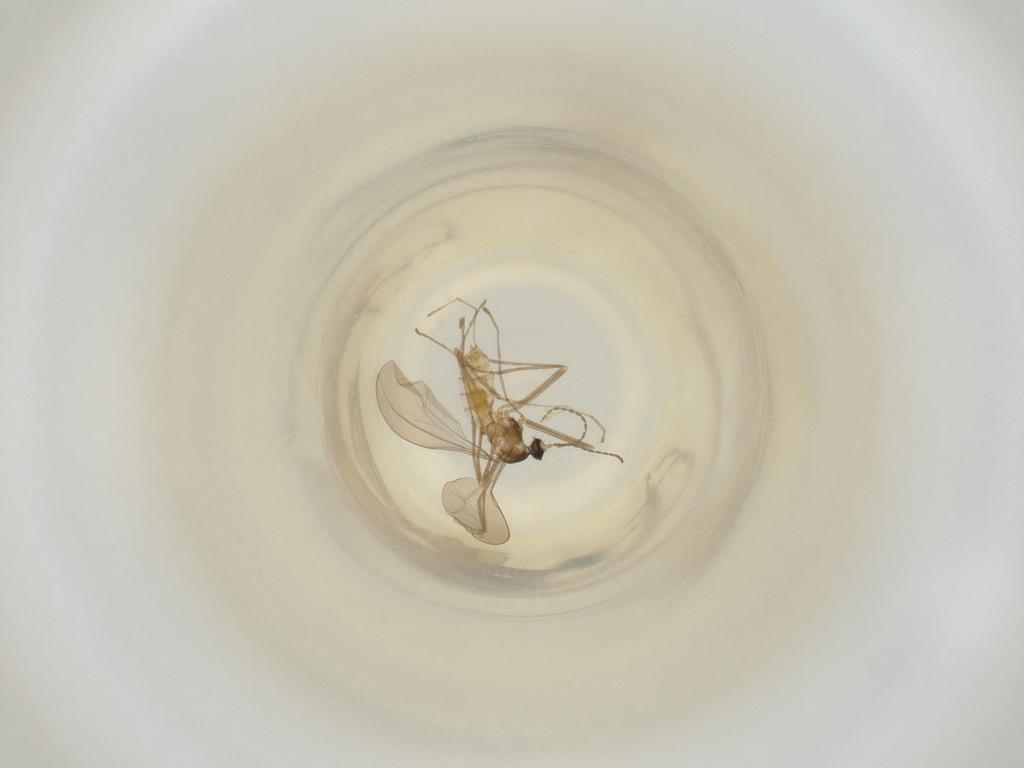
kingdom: Animalia
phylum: Arthropoda
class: Insecta
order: Diptera
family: Cecidomyiidae
